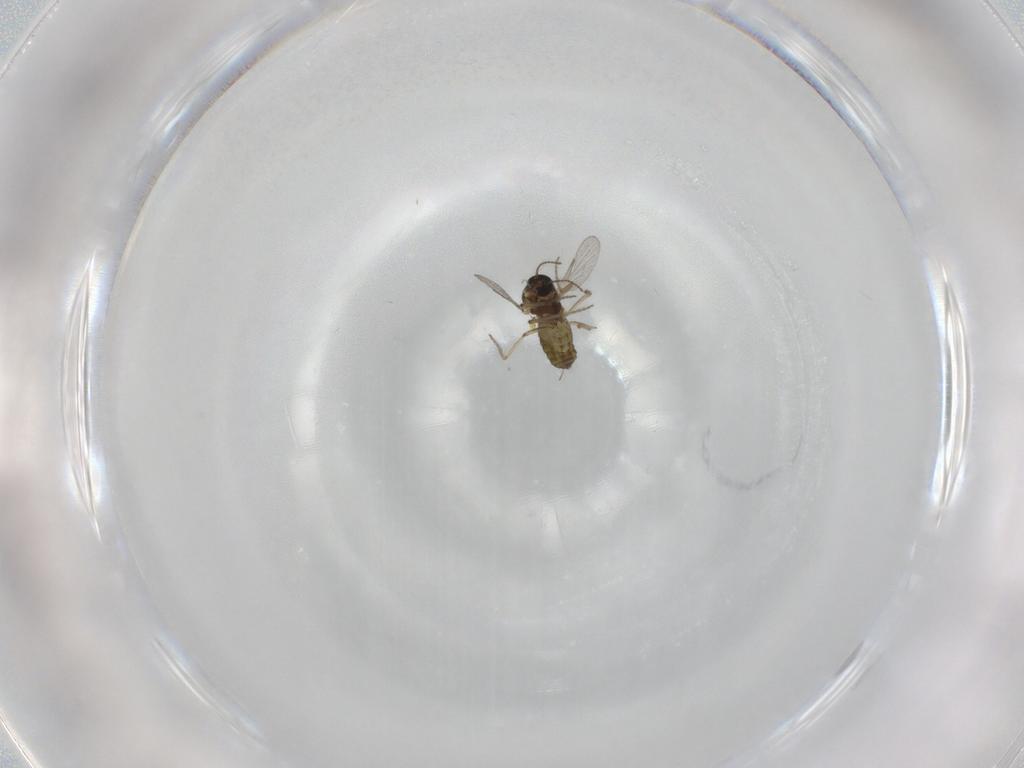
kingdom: Animalia
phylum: Arthropoda
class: Insecta
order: Diptera
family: Ceratopogonidae
